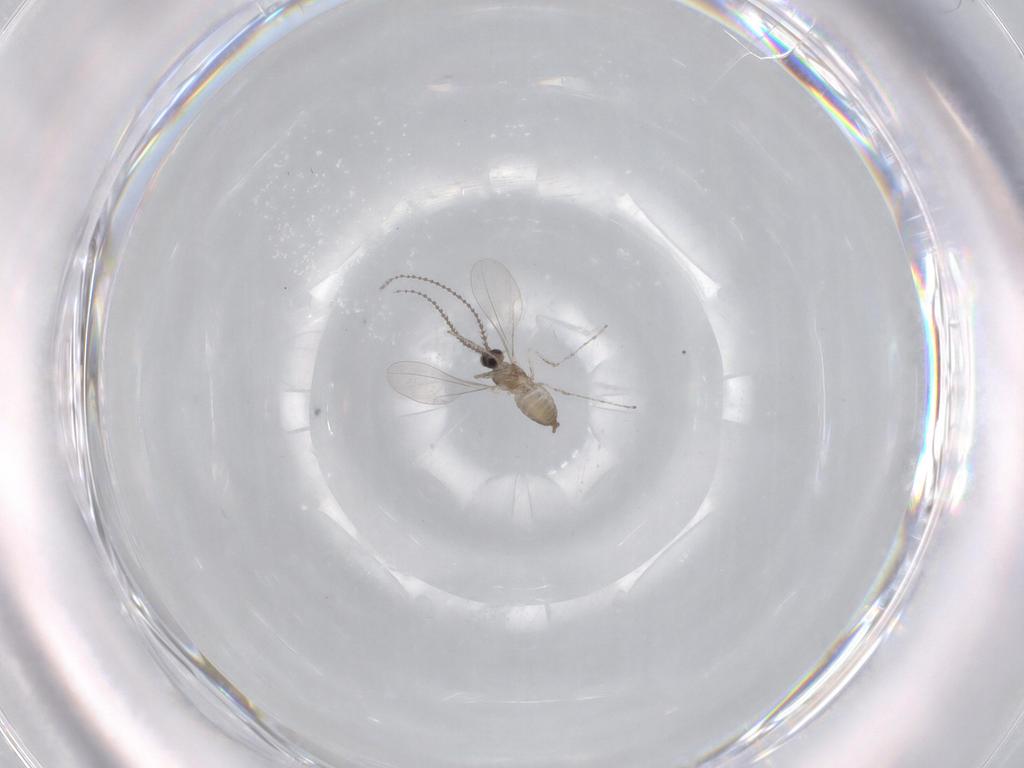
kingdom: Animalia
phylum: Arthropoda
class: Insecta
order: Diptera
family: Cecidomyiidae
